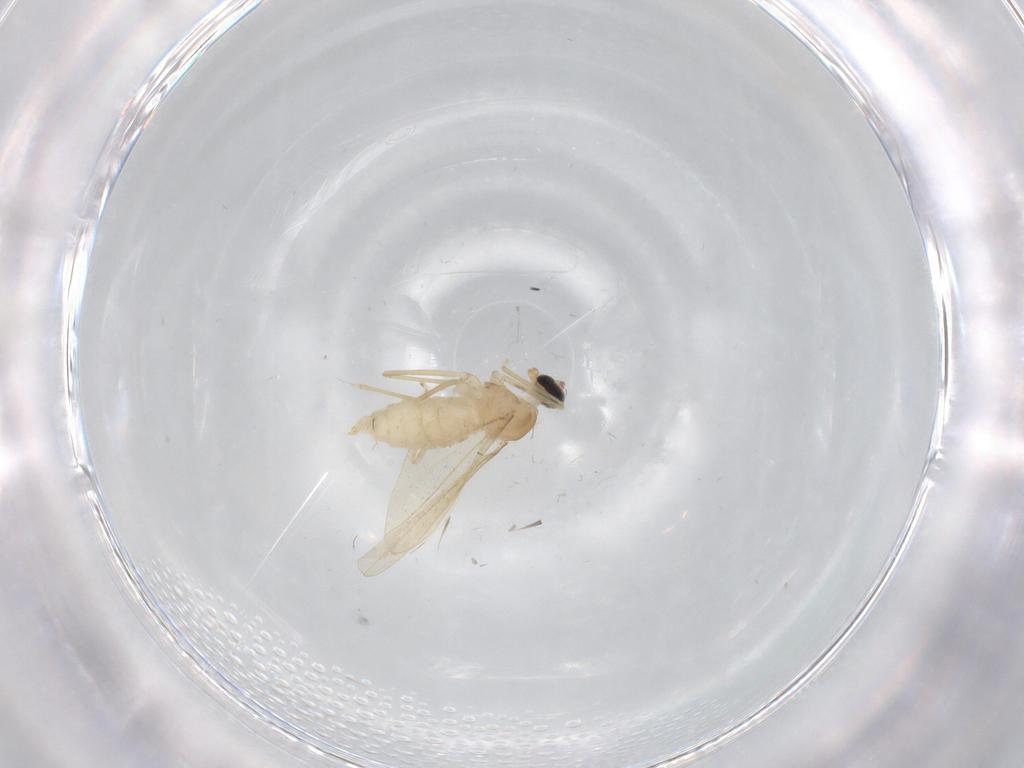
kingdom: Animalia
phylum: Arthropoda
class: Insecta
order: Diptera
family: Cecidomyiidae
